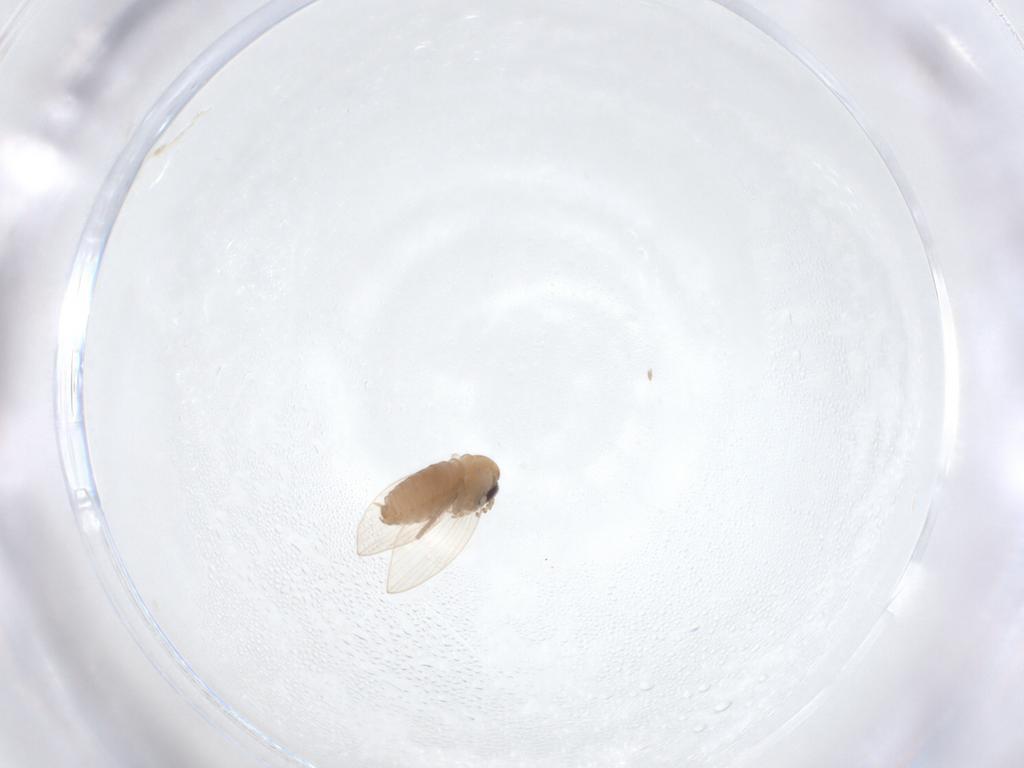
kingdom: Animalia
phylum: Arthropoda
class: Insecta
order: Diptera
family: Psychodidae
